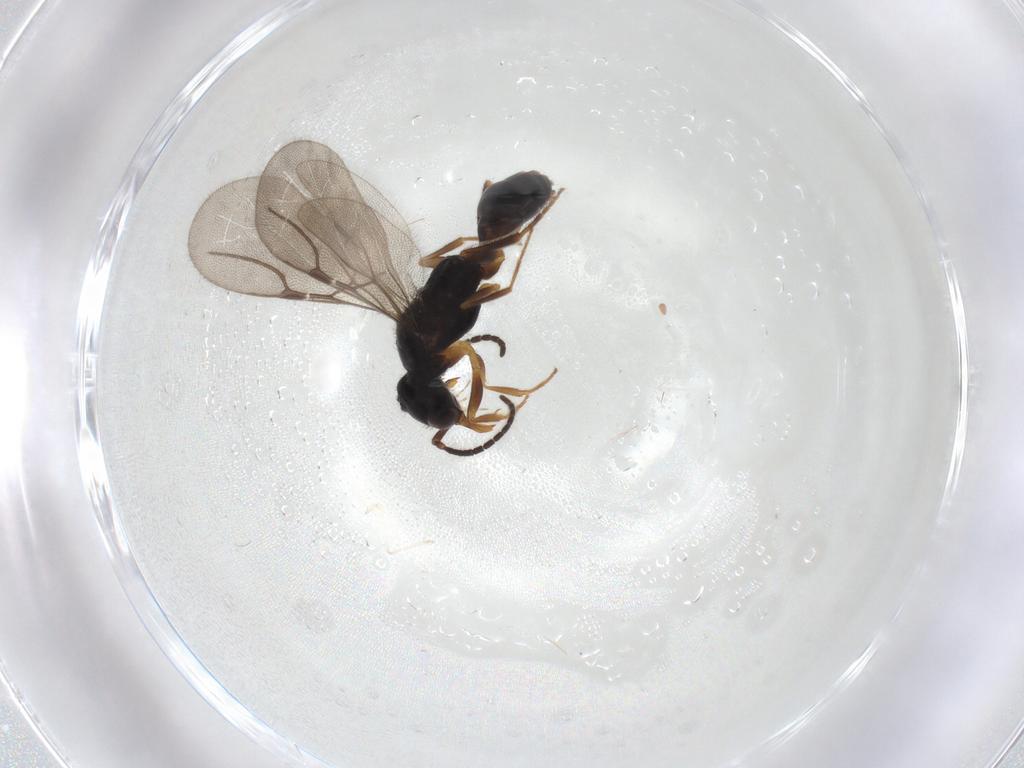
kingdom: Animalia
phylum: Arthropoda
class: Insecta
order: Hymenoptera
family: Bethylidae
